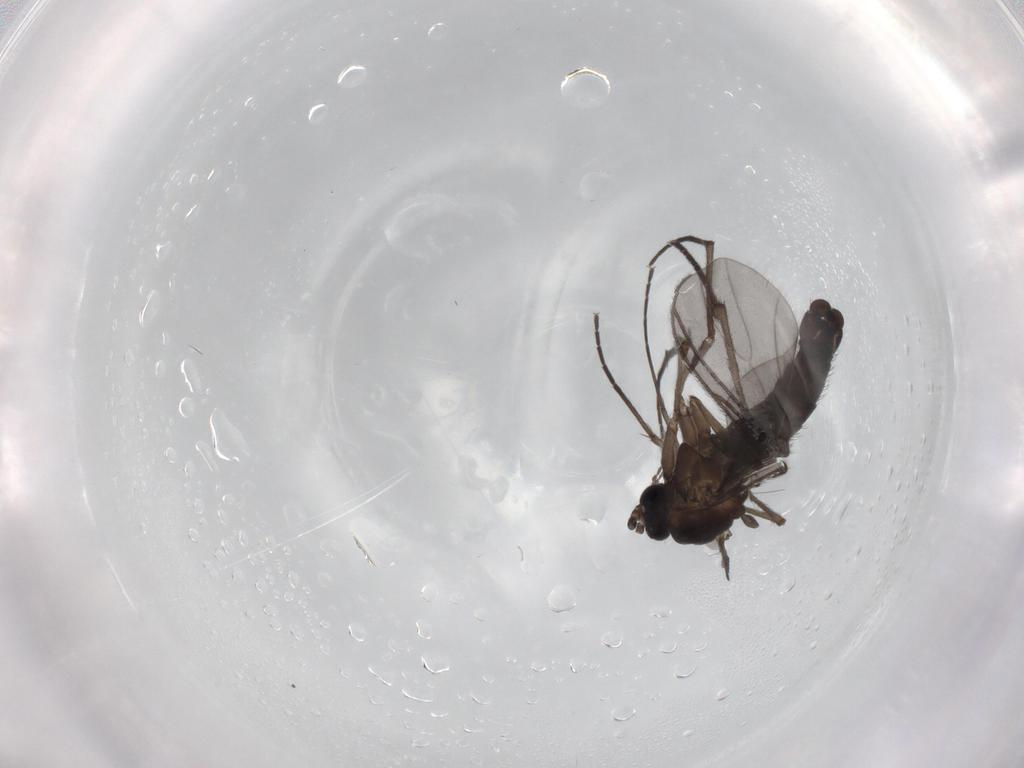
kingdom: Animalia
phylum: Arthropoda
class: Insecta
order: Diptera
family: Sciaridae
